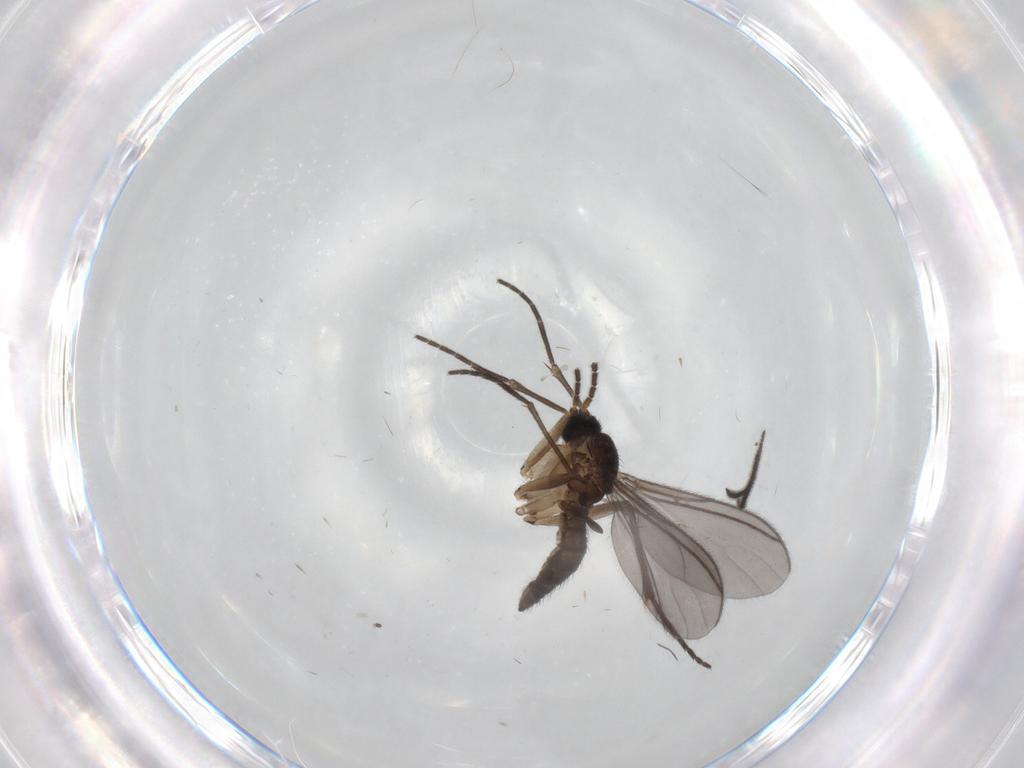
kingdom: Animalia
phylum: Arthropoda
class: Insecta
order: Diptera
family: Sciaridae
